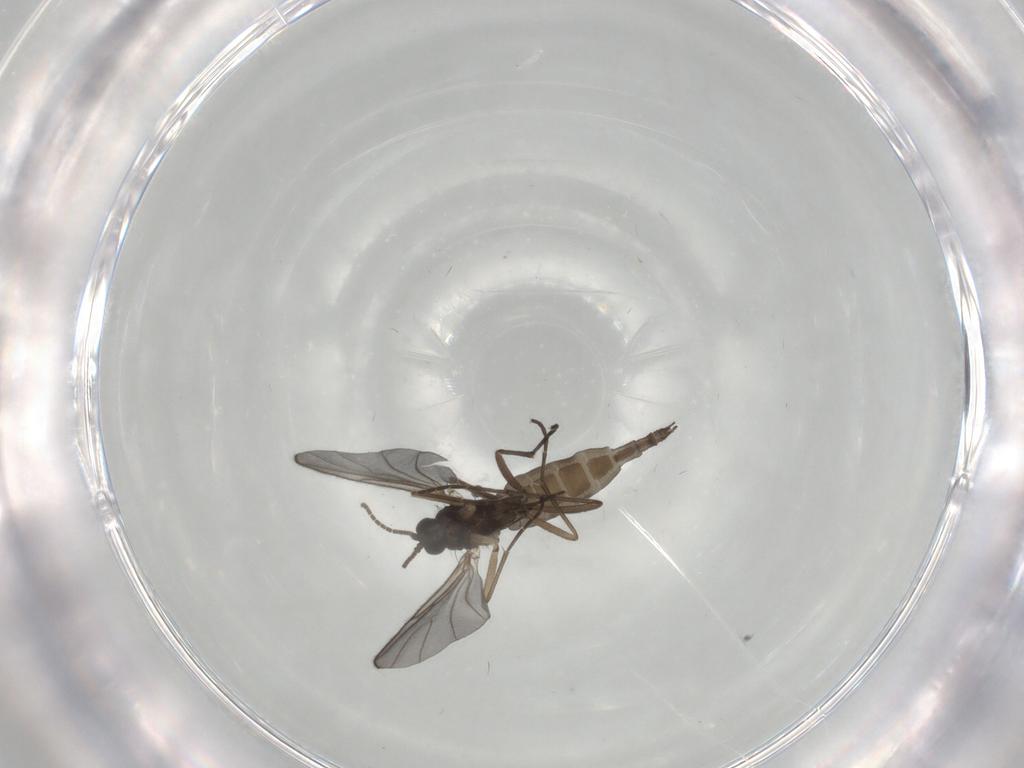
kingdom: Animalia
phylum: Arthropoda
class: Insecta
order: Diptera
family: Sciaridae
